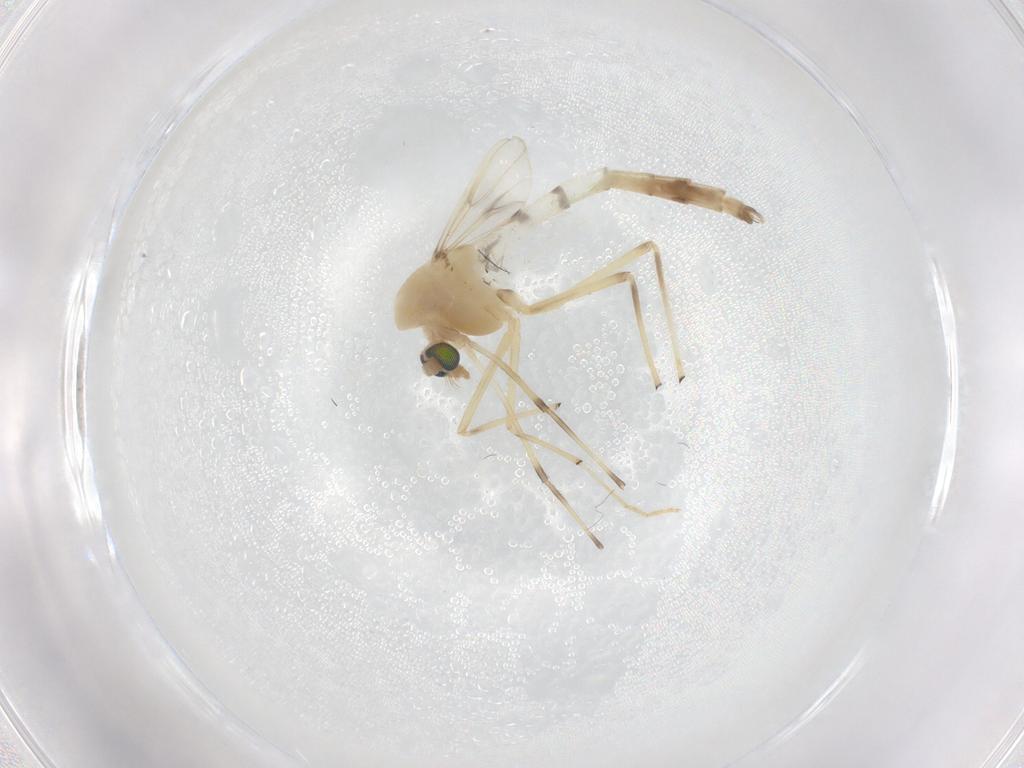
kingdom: Animalia
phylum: Arthropoda
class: Insecta
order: Diptera
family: Chironomidae
